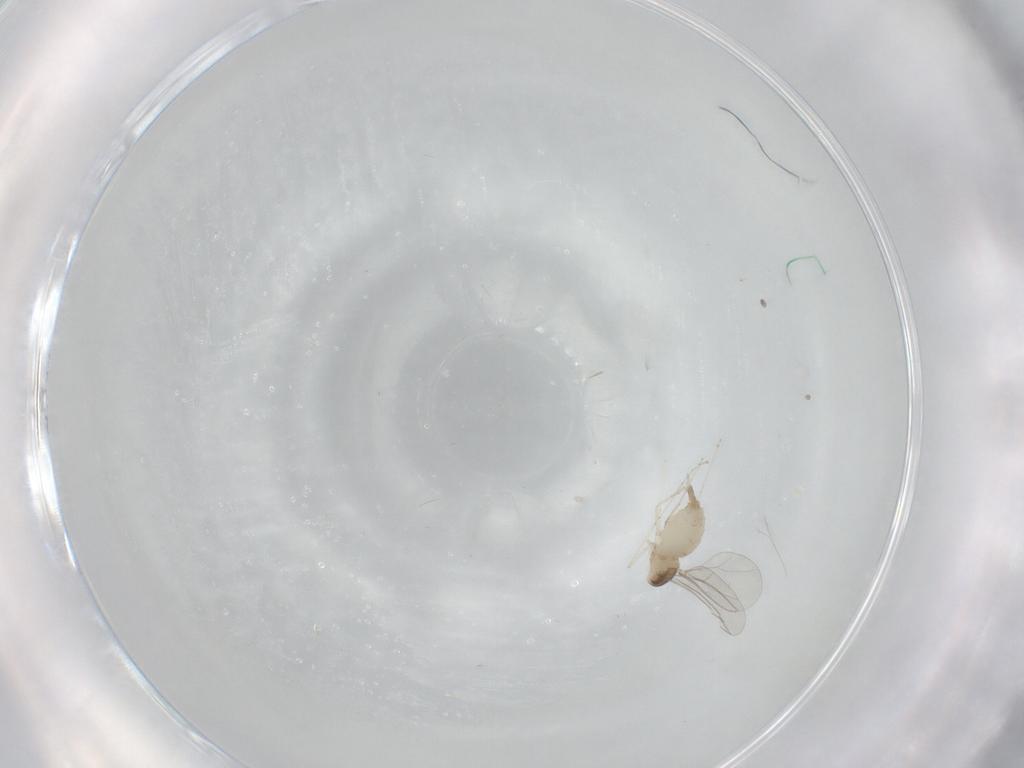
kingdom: Animalia
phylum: Arthropoda
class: Insecta
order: Diptera
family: Cecidomyiidae
